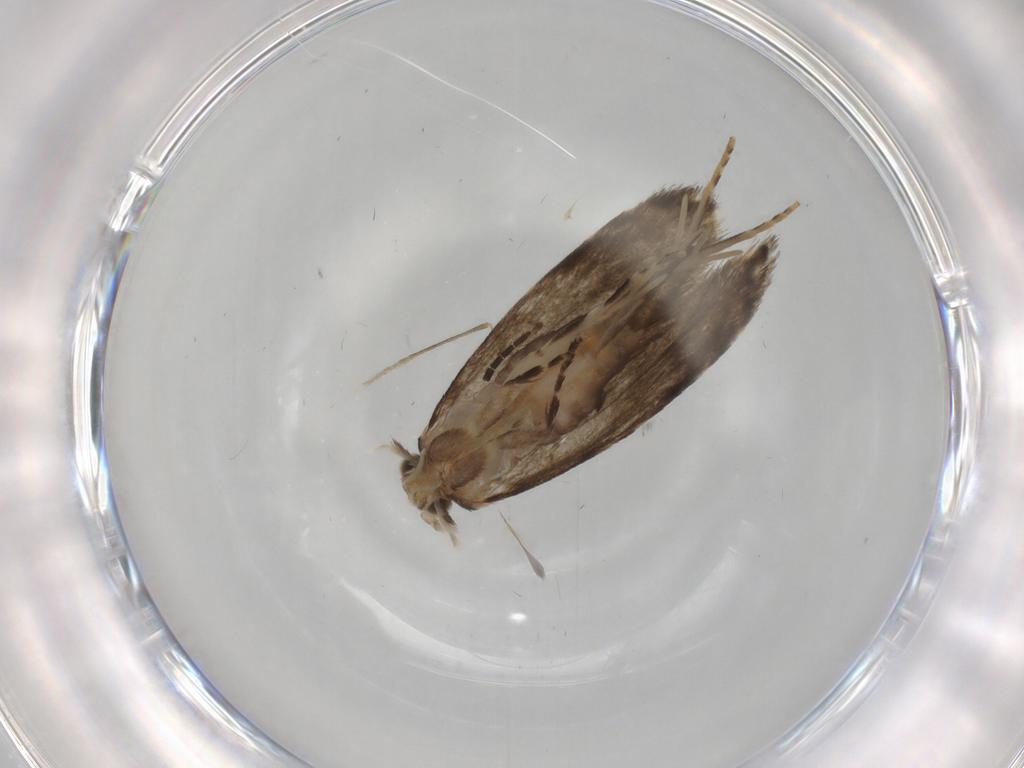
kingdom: Animalia
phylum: Arthropoda
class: Insecta
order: Lepidoptera
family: Tineidae
